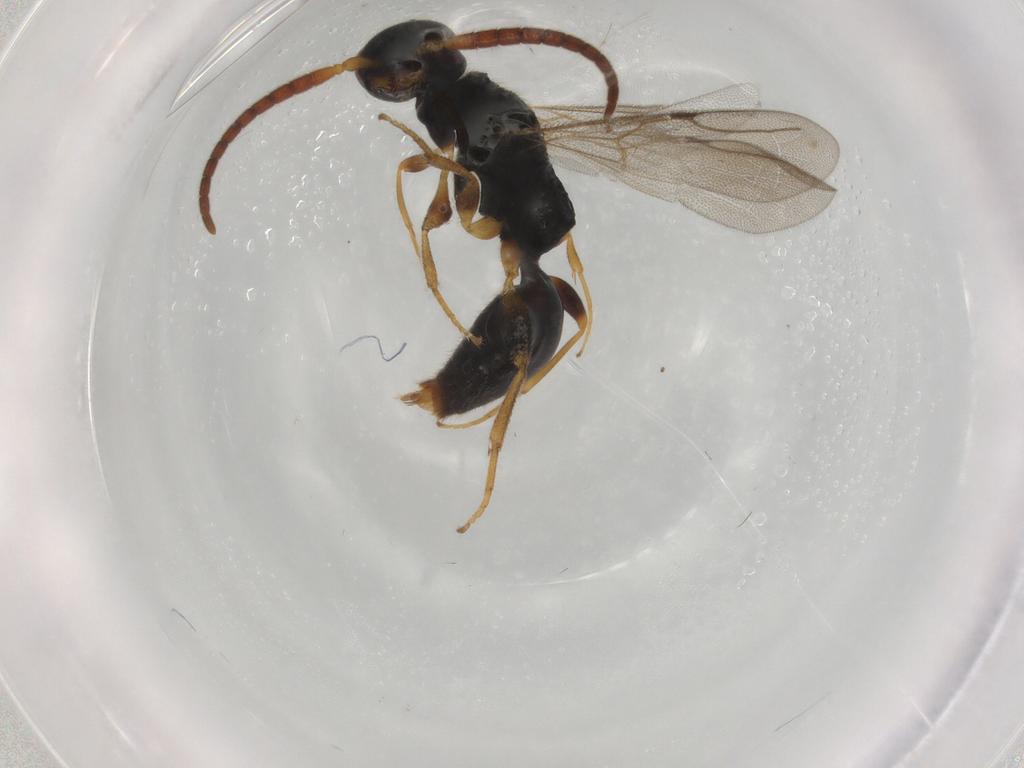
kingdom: Animalia
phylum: Arthropoda
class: Insecta
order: Hymenoptera
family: Bethylidae
